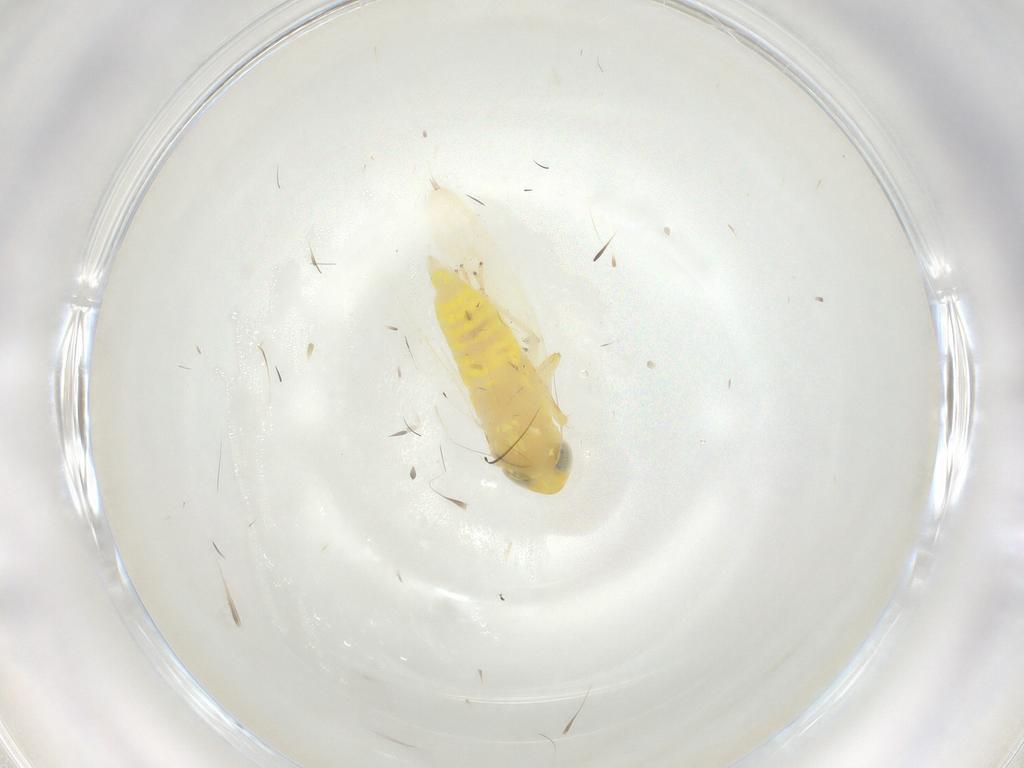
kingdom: Animalia
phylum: Arthropoda
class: Insecta
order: Hemiptera
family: Cicadellidae
